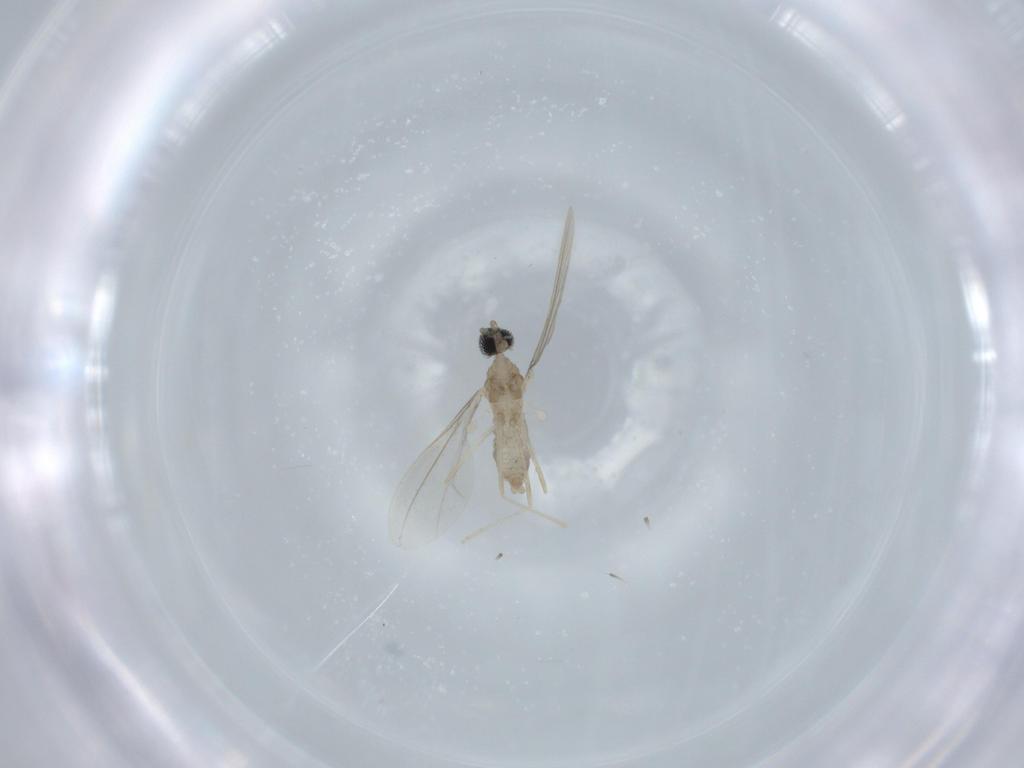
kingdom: Animalia
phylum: Arthropoda
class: Insecta
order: Diptera
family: Cecidomyiidae
